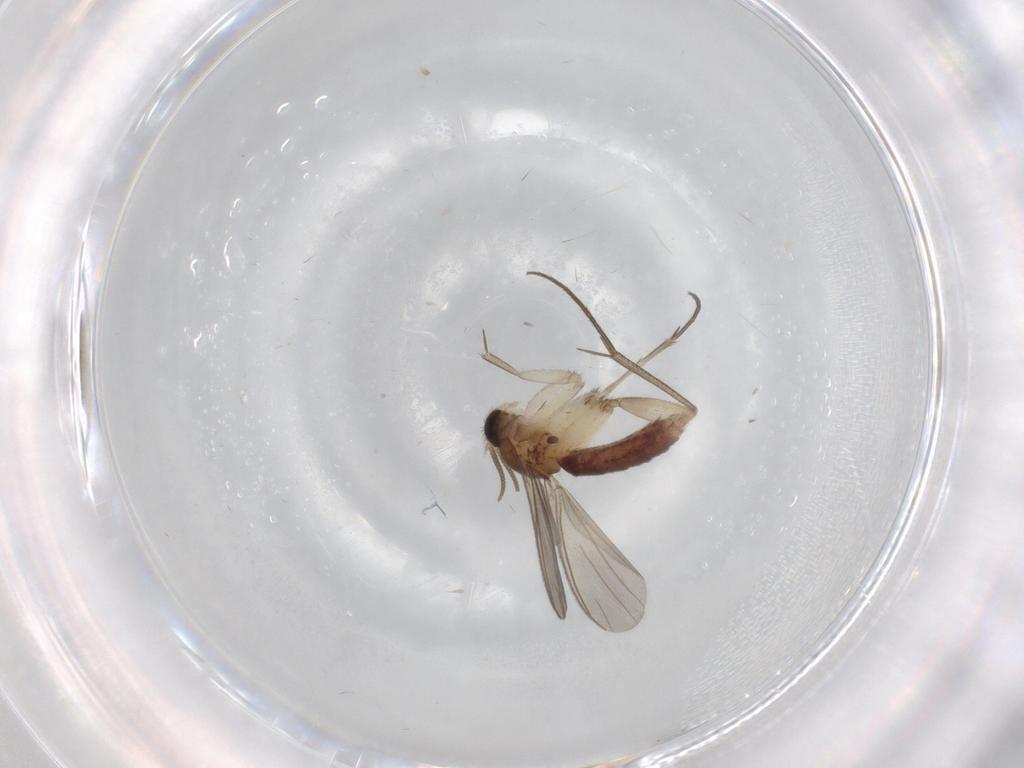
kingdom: Animalia
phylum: Arthropoda
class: Insecta
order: Diptera
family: Mycetophilidae
